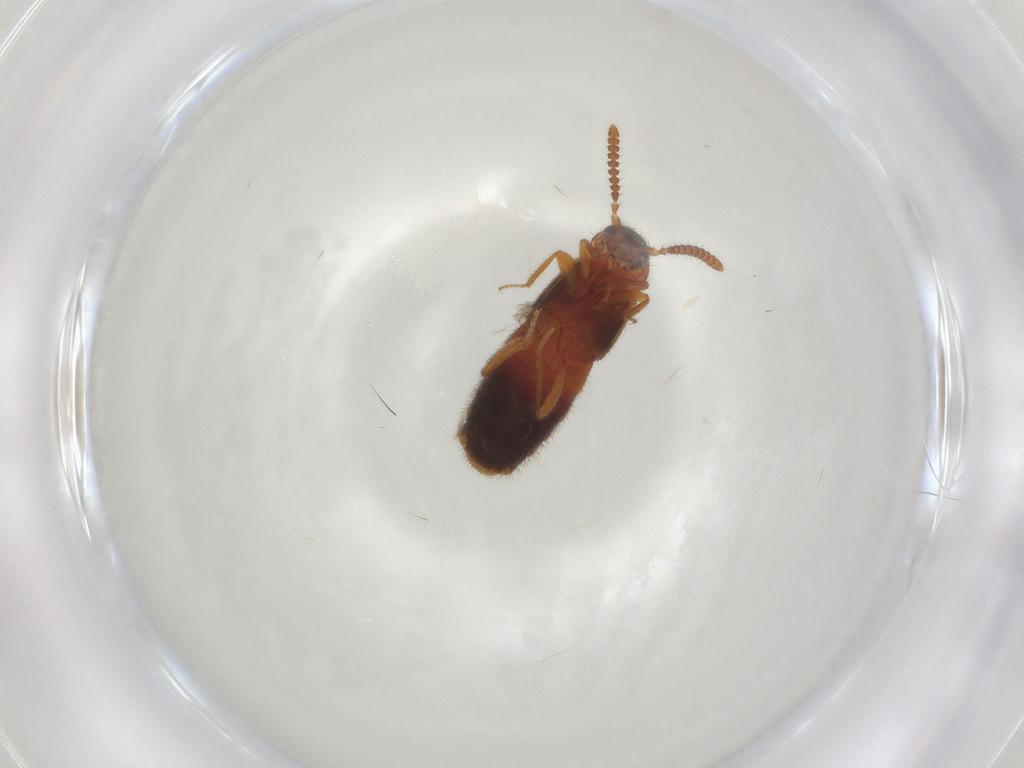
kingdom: Animalia
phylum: Arthropoda
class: Insecta
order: Coleoptera
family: Staphylinidae
